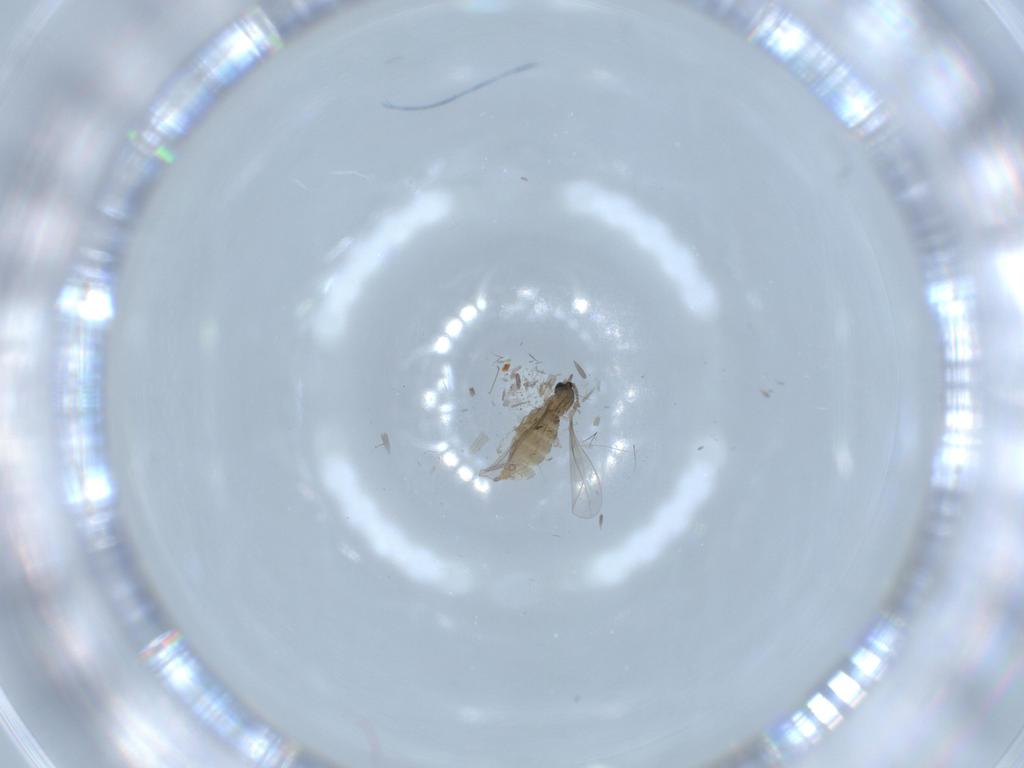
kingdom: Animalia
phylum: Arthropoda
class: Insecta
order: Diptera
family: Cecidomyiidae
